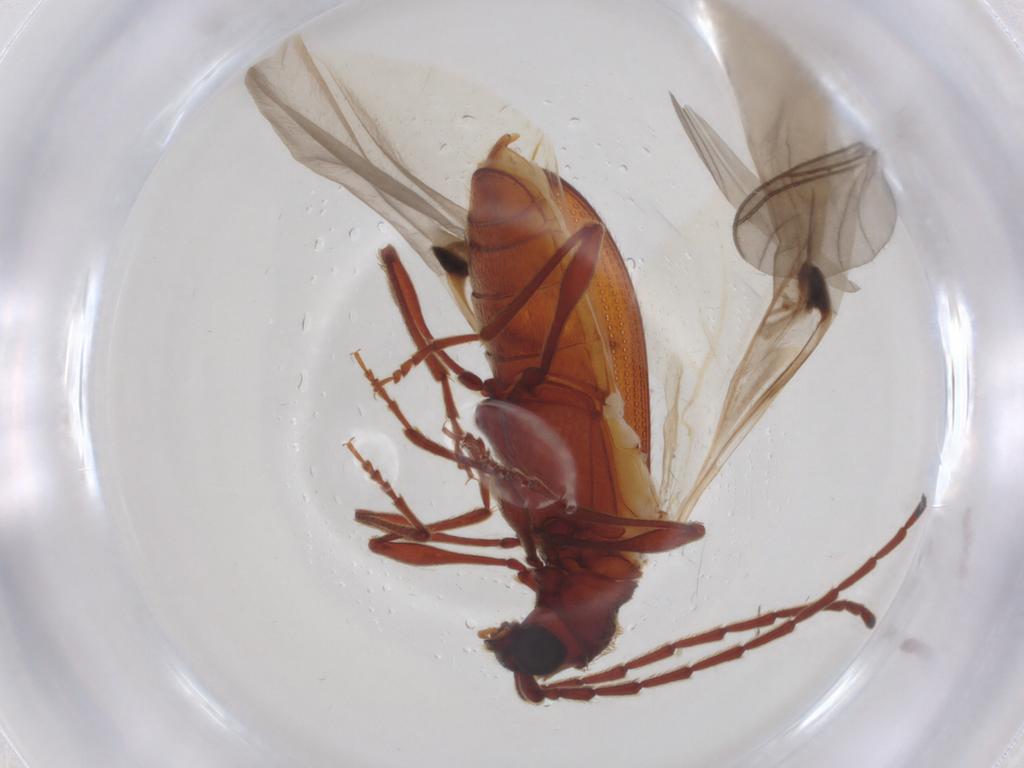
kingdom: Animalia
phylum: Arthropoda
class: Insecta
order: Coleoptera
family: Ptinidae
